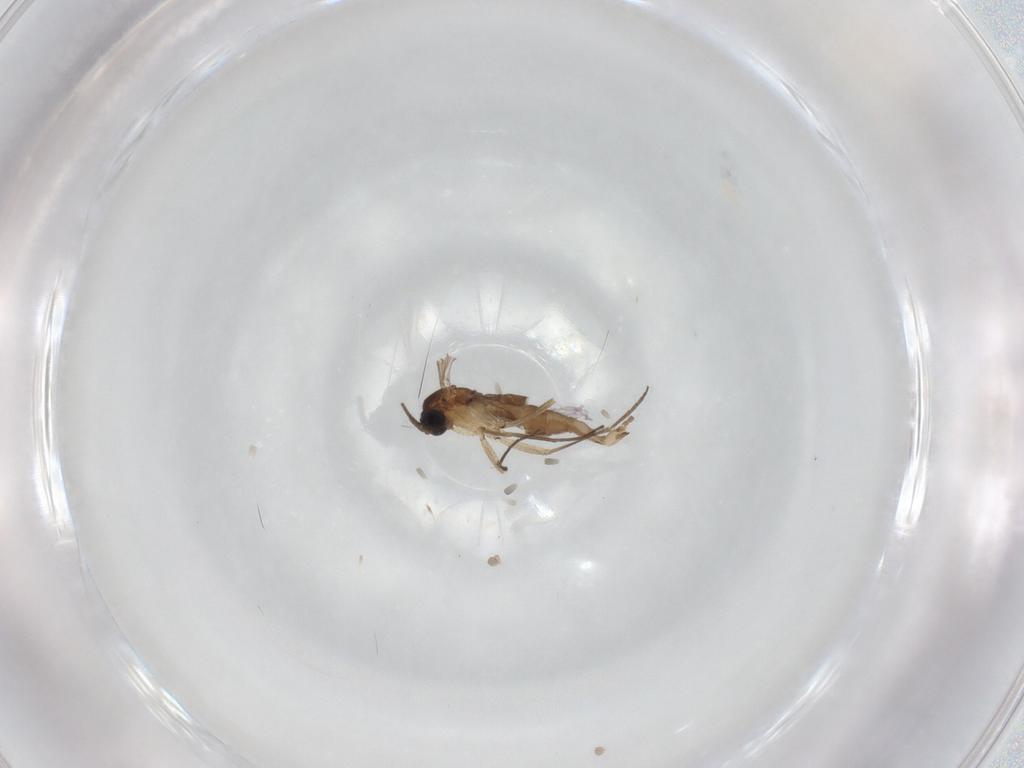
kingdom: Animalia
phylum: Arthropoda
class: Insecta
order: Diptera
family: Sciaridae
